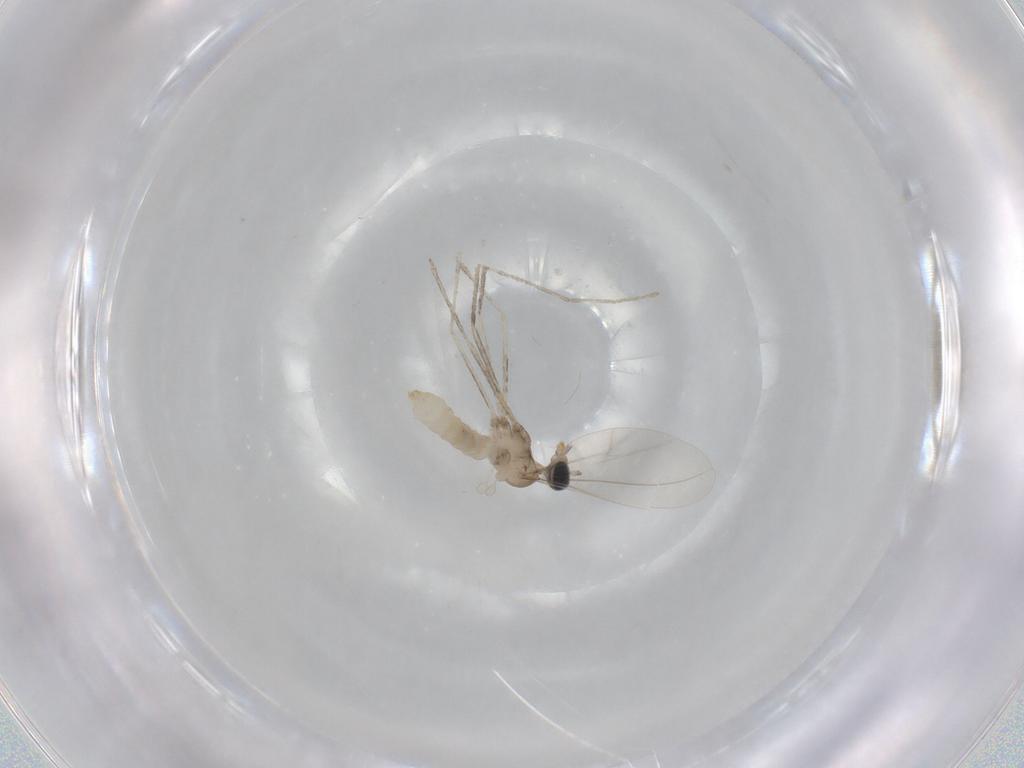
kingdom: Animalia
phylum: Arthropoda
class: Insecta
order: Diptera
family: Cecidomyiidae
